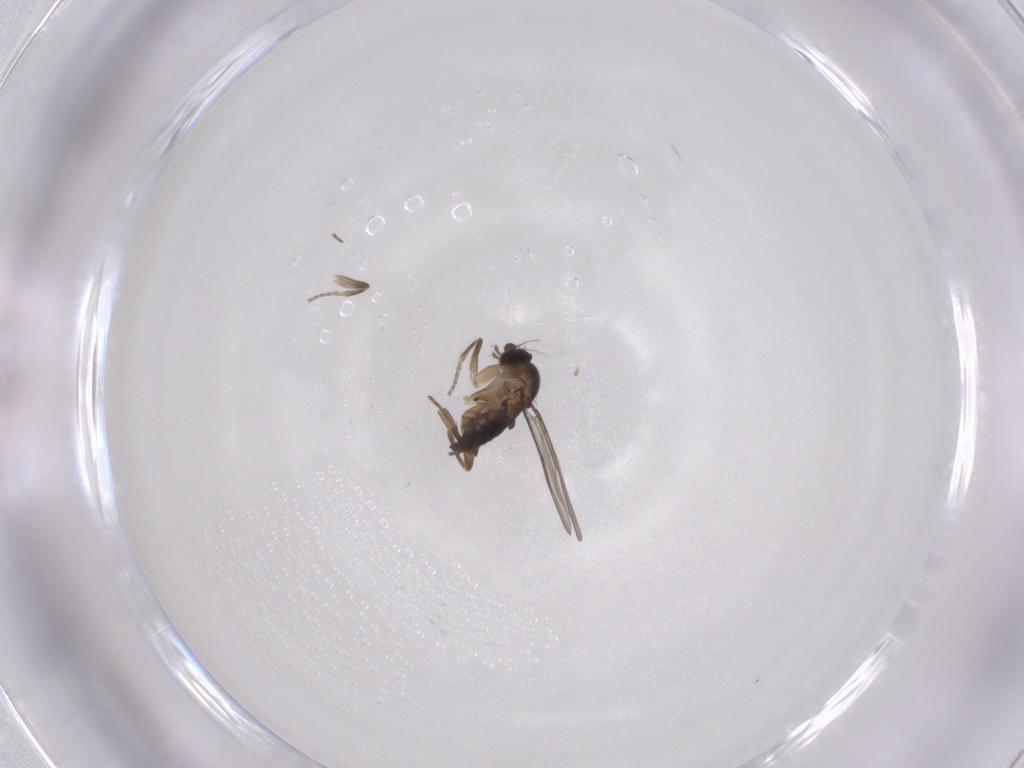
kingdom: Animalia
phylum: Arthropoda
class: Insecta
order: Diptera
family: Phoridae
